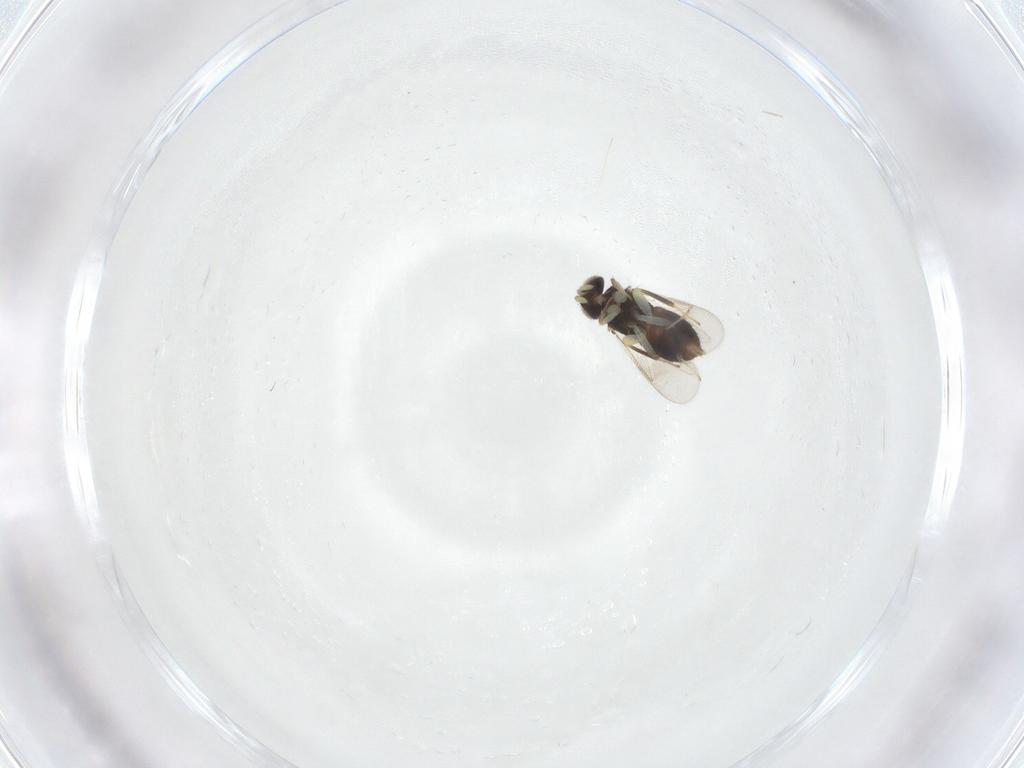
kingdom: Animalia
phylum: Arthropoda
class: Insecta
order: Hymenoptera
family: Aphelinidae
